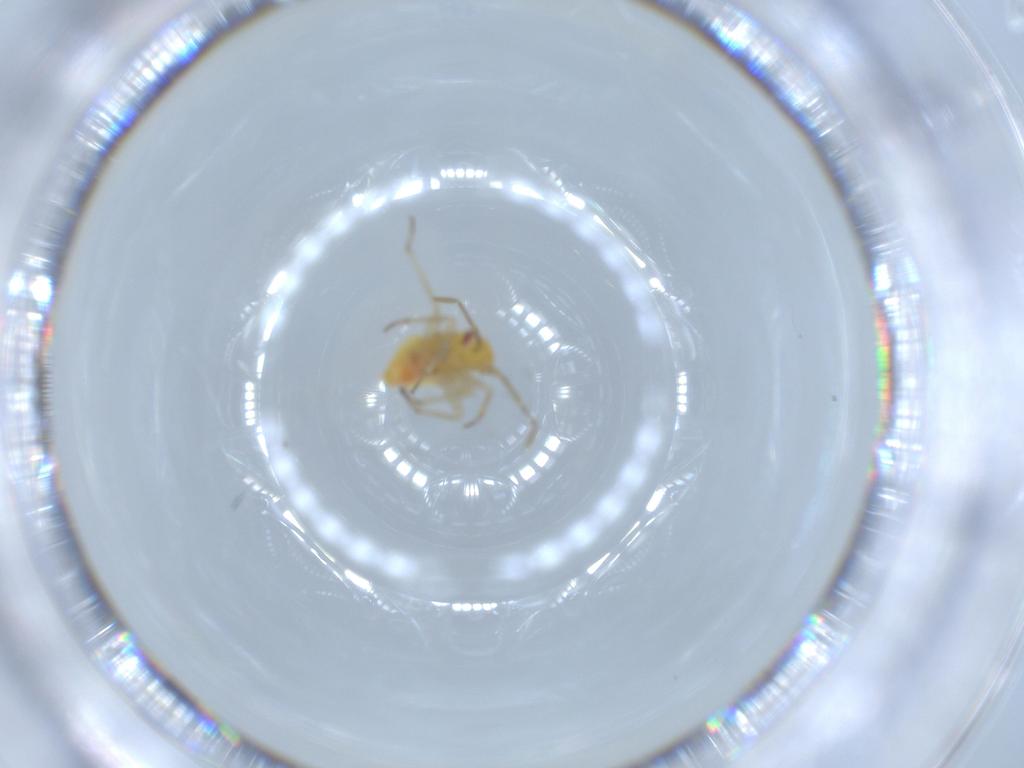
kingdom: Animalia
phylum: Arthropoda
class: Insecta
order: Hemiptera
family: Miridae
